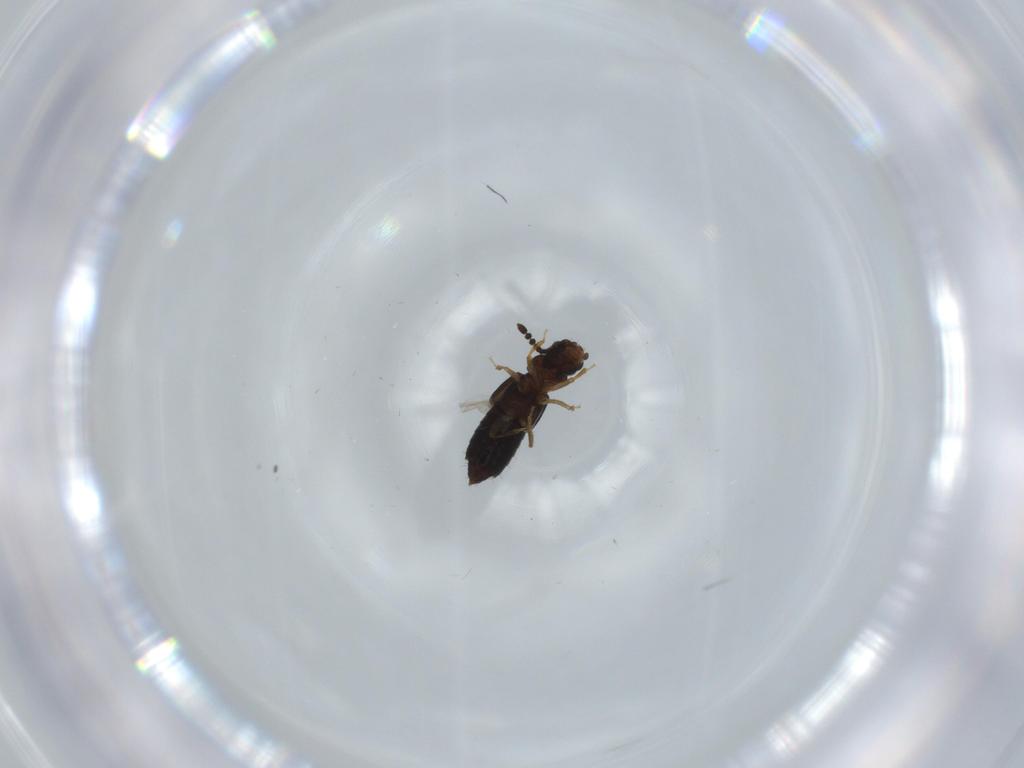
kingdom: Animalia
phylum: Arthropoda
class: Insecta
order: Coleoptera
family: Staphylinidae
